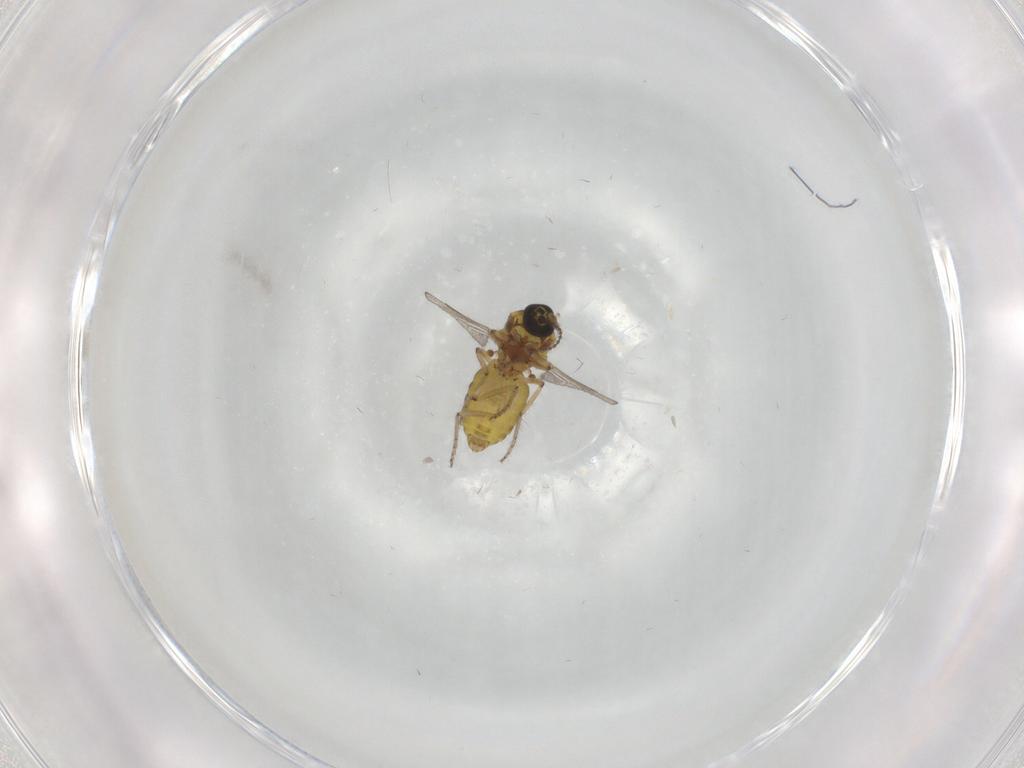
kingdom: Animalia
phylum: Arthropoda
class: Insecta
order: Diptera
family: Ceratopogonidae
